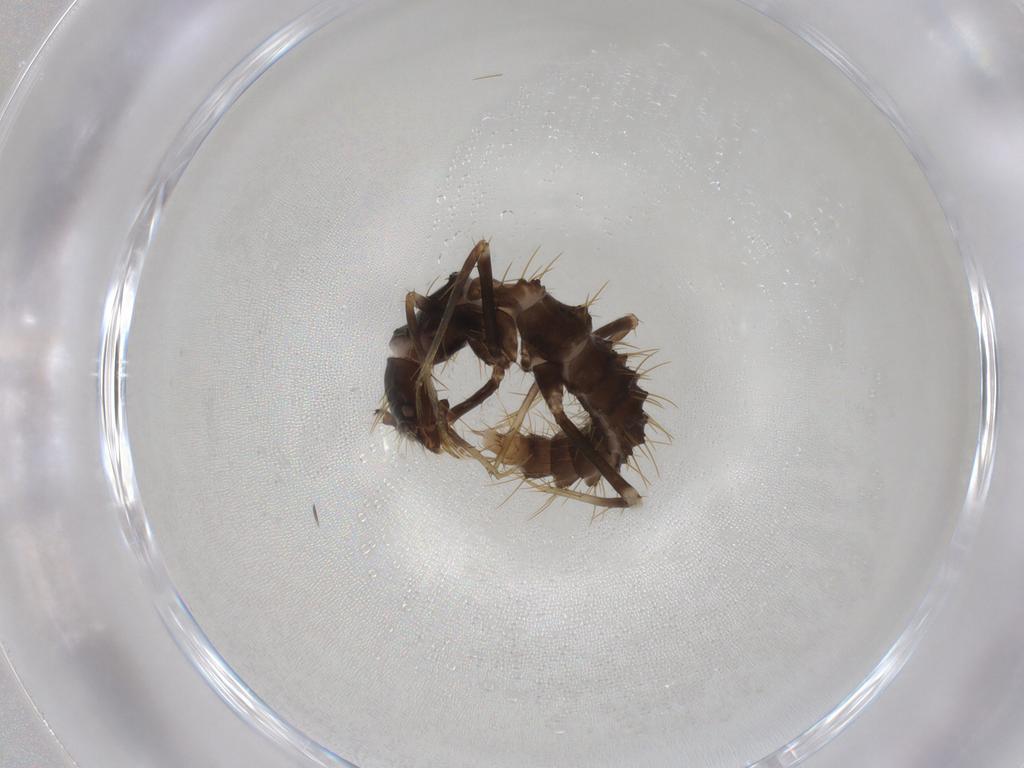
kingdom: Animalia
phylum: Arthropoda
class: Insecta
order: Coleoptera
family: Staphylinidae
